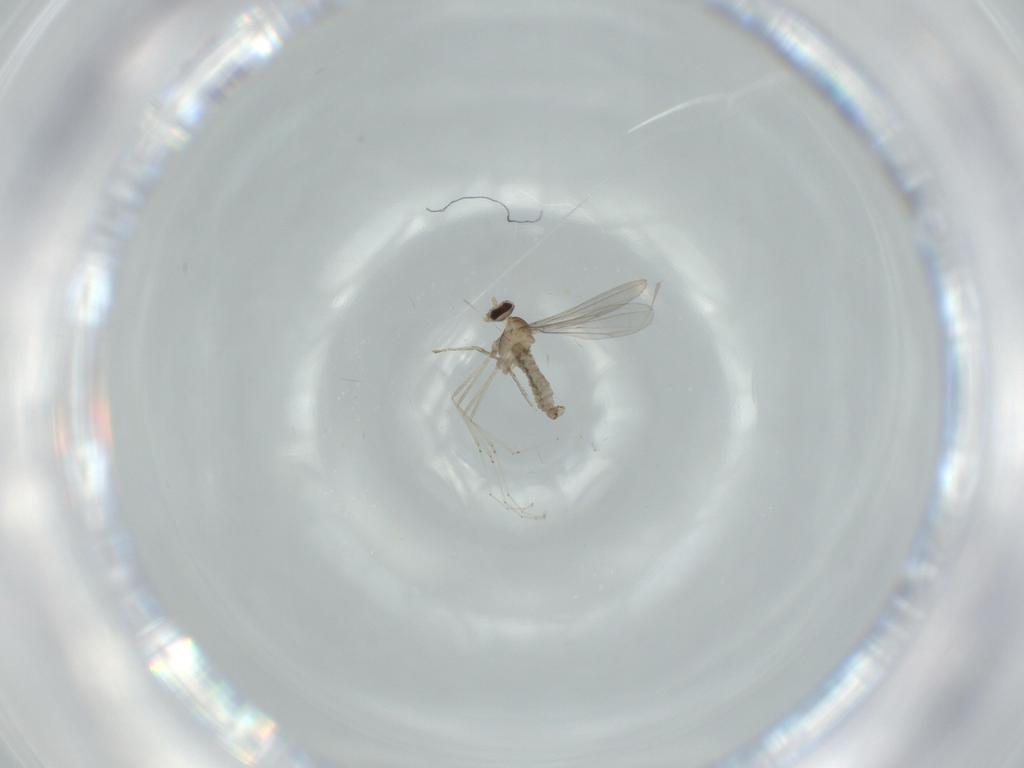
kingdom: Animalia
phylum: Arthropoda
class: Insecta
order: Diptera
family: Cecidomyiidae
